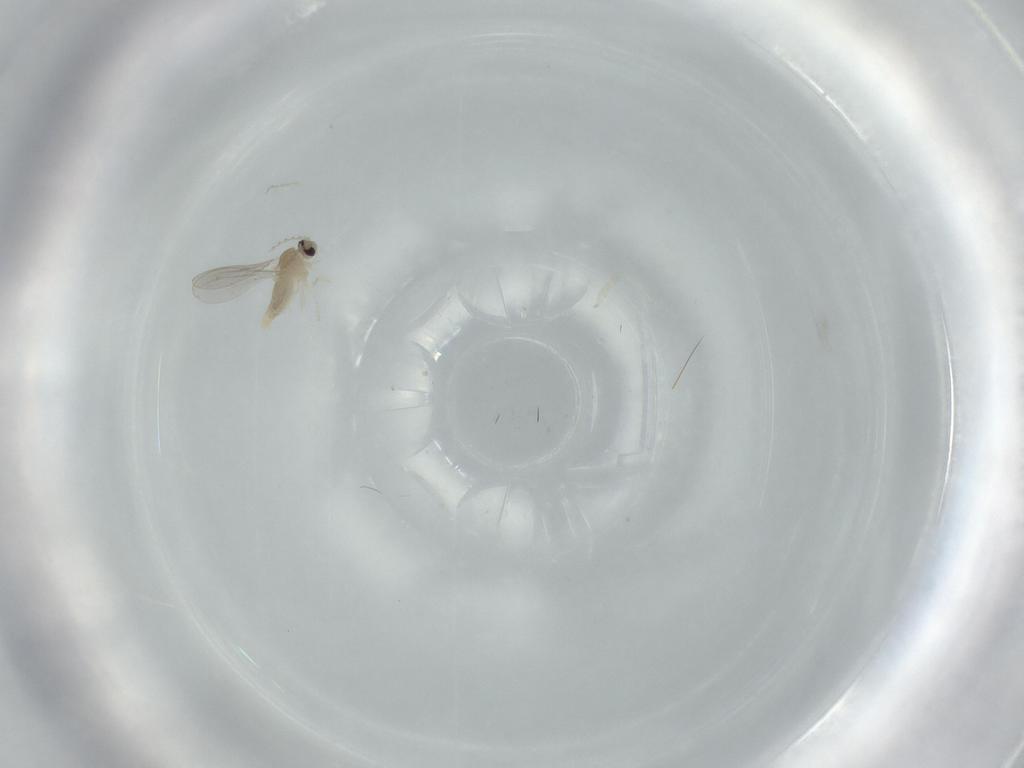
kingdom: Animalia
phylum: Arthropoda
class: Insecta
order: Diptera
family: Cecidomyiidae
